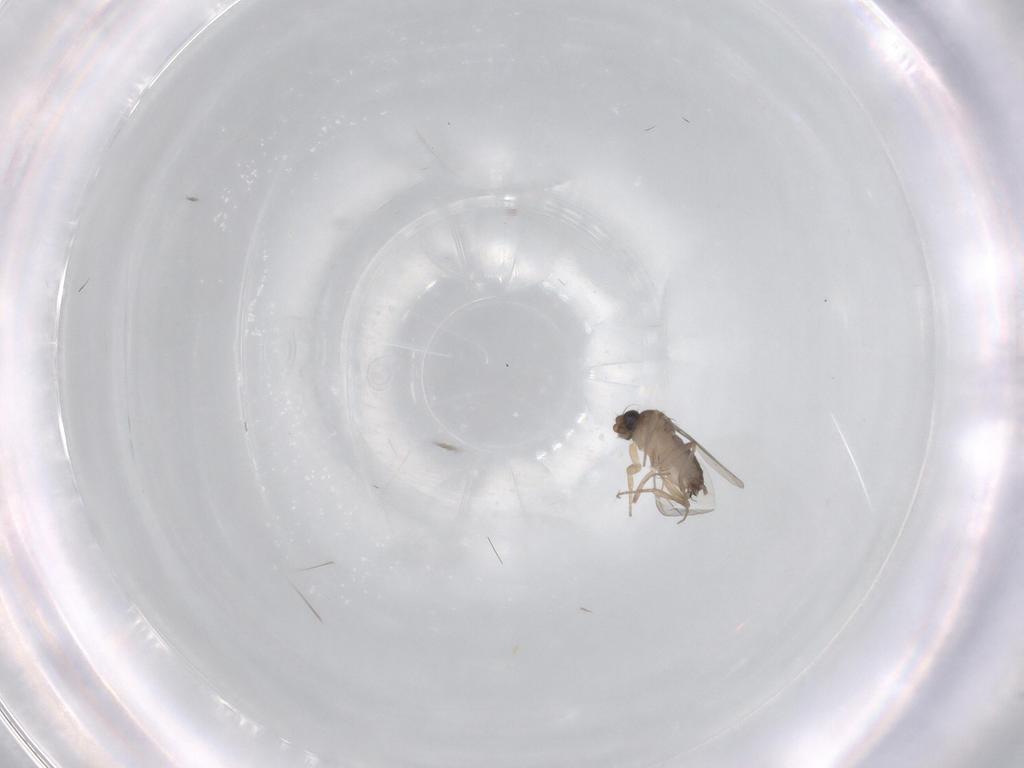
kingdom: Animalia
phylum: Arthropoda
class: Insecta
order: Diptera
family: Phoridae
